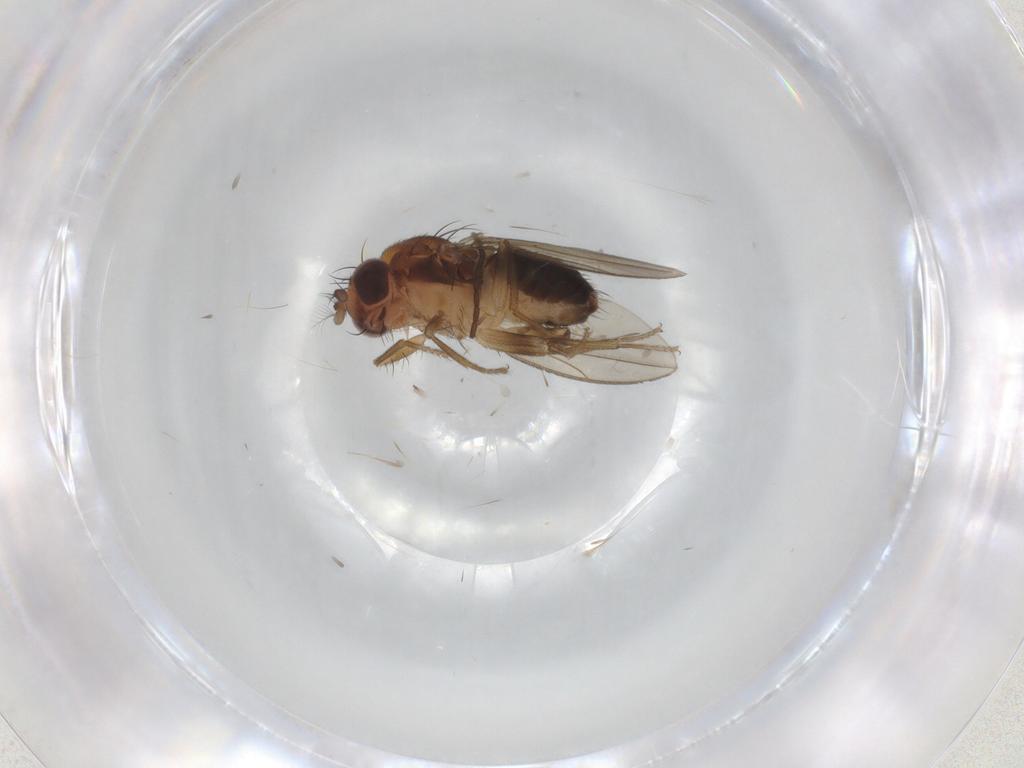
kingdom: Animalia
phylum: Arthropoda
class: Insecta
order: Diptera
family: Drosophilidae
